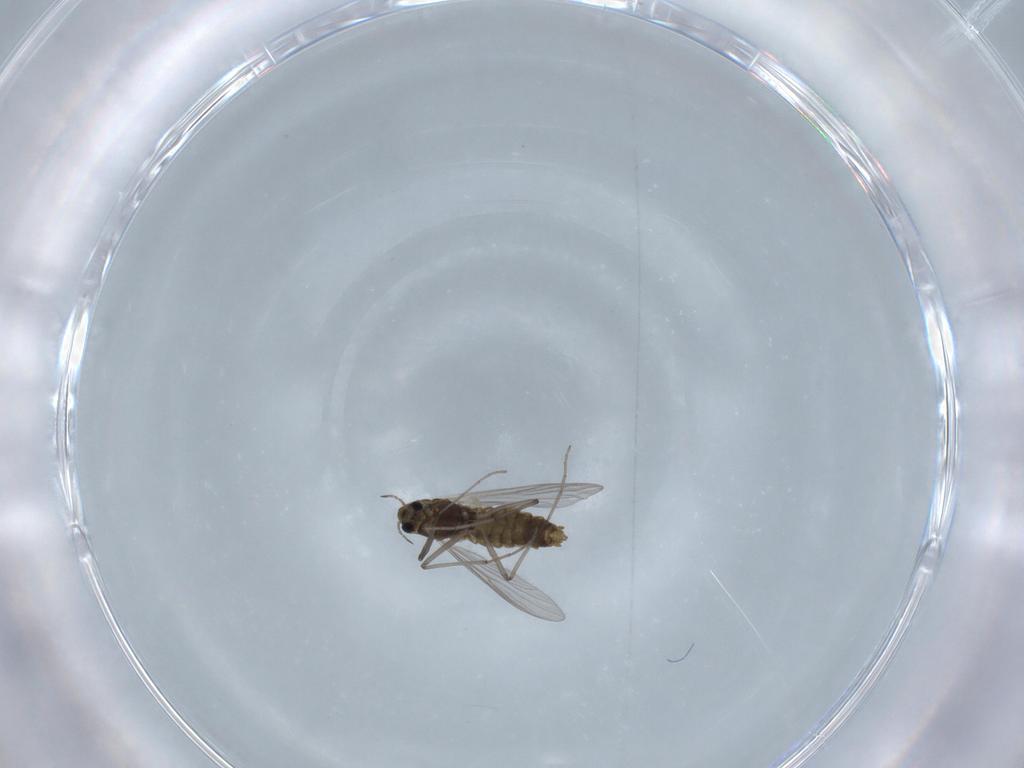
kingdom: Animalia
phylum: Arthropoda
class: Insecta
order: Diptera
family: Chironomidae
